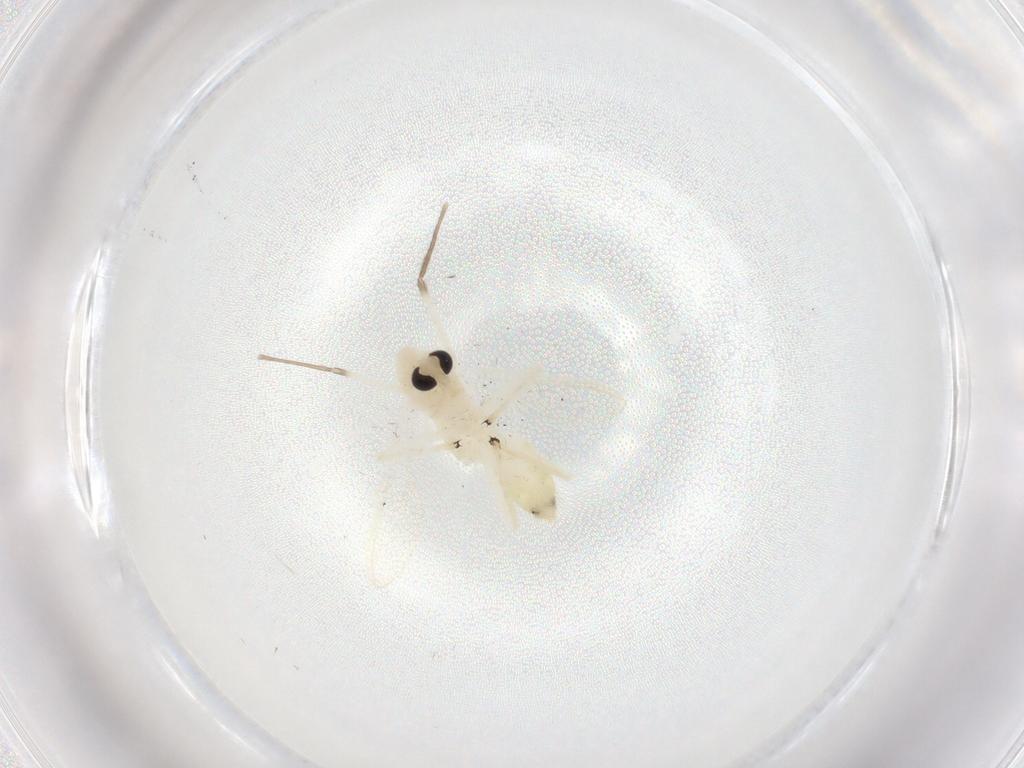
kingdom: Animalia
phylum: Arthropoda
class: Insecta
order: Diptera
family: Chironomidae
